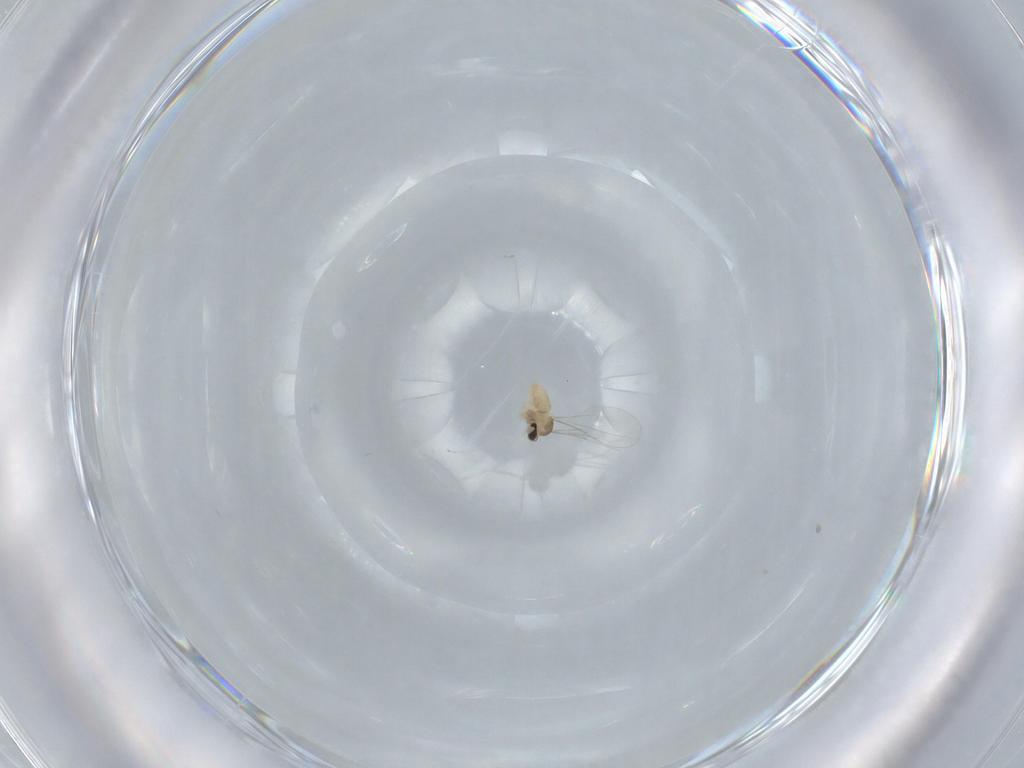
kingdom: Animalia
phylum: Arthropoda
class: Insecta
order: Diptera
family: Cecidomyiidae
